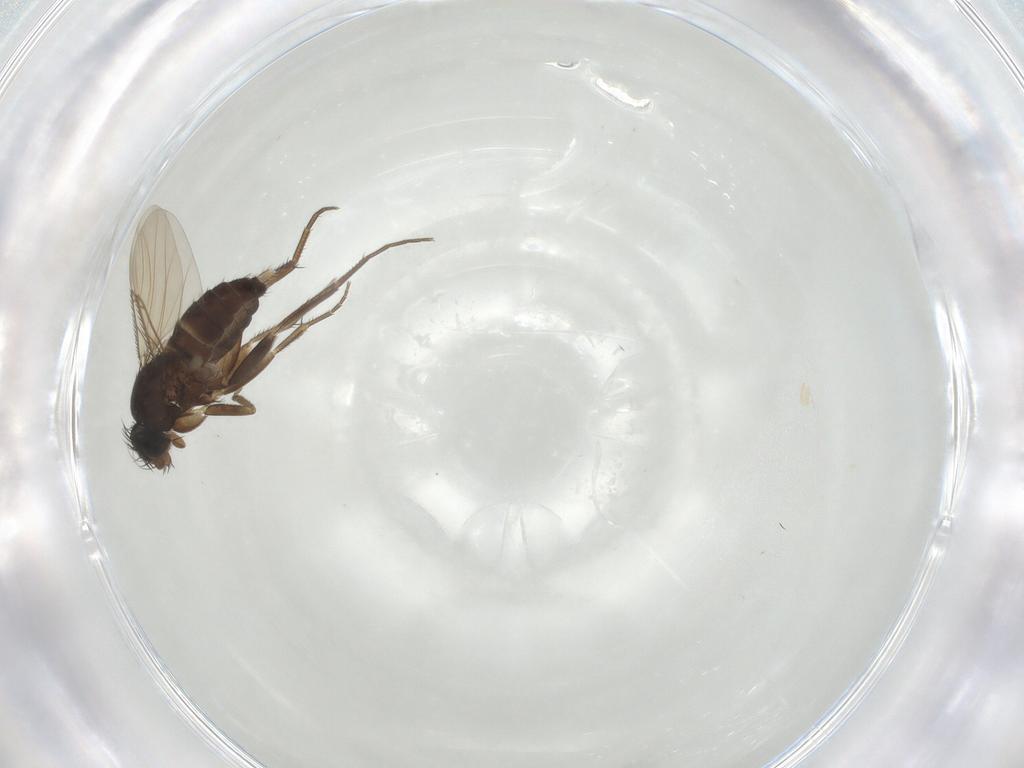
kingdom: Animalia
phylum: Arthropoda
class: Insecta
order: Diptera
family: Phoridae
